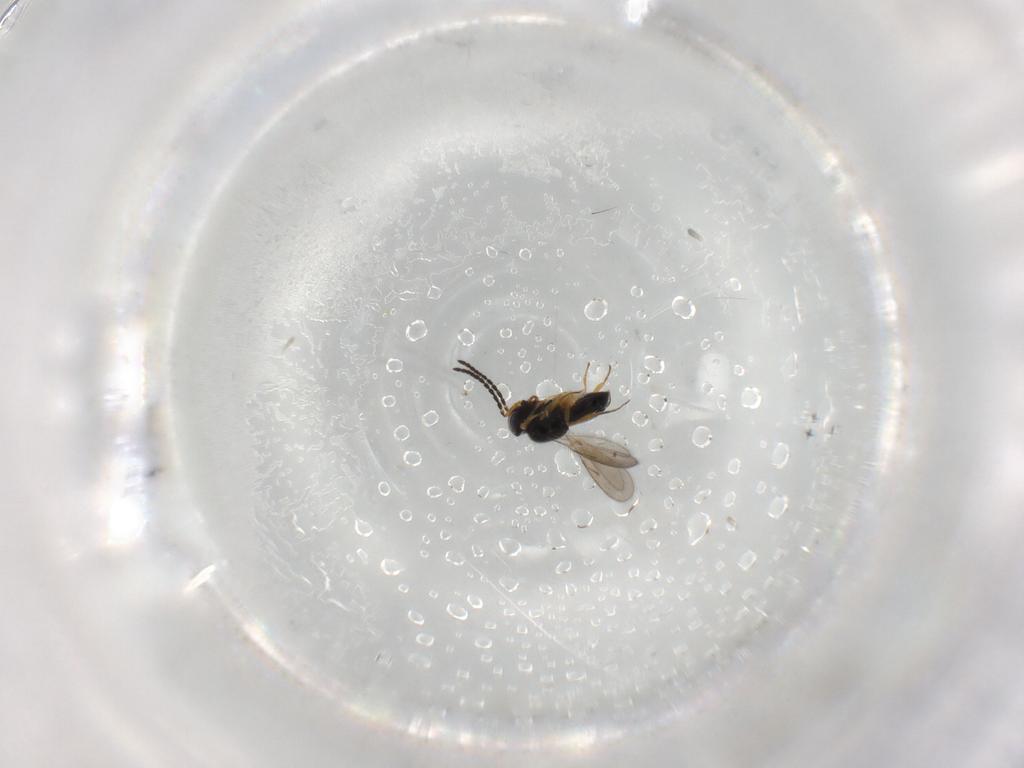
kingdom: Animalia
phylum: Arthropoda
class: Insecta
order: Hymenoptera
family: Scelionidae
